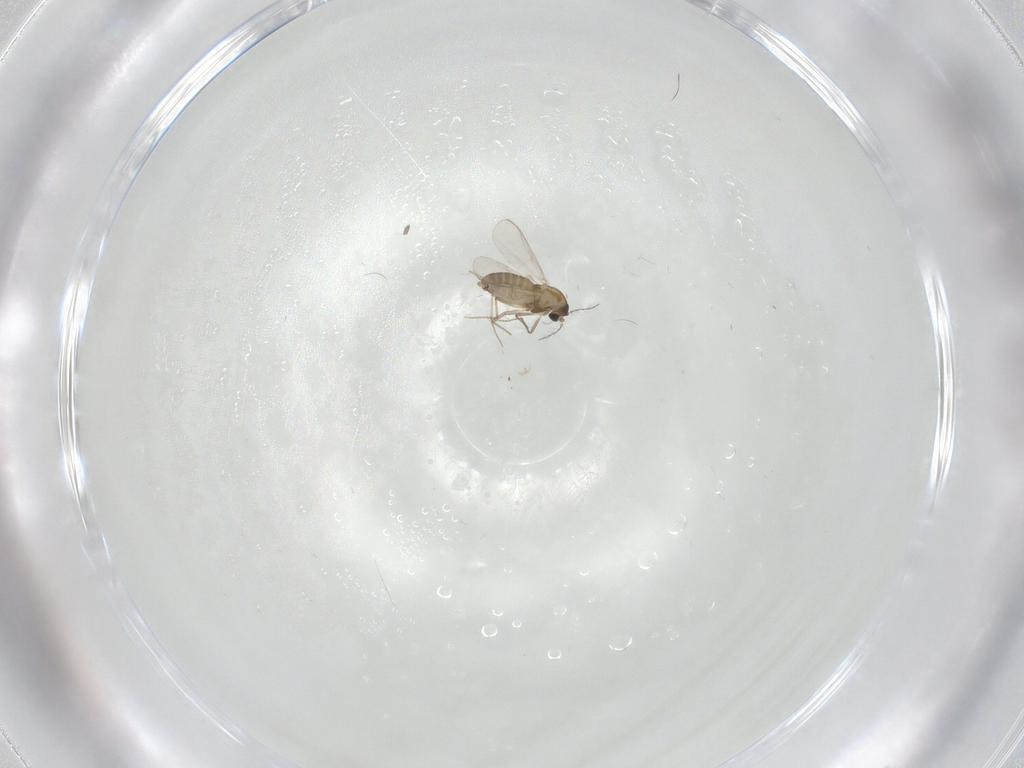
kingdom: Animalia
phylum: Arthropoda
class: Insecta
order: Diptera
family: Chironomidae
